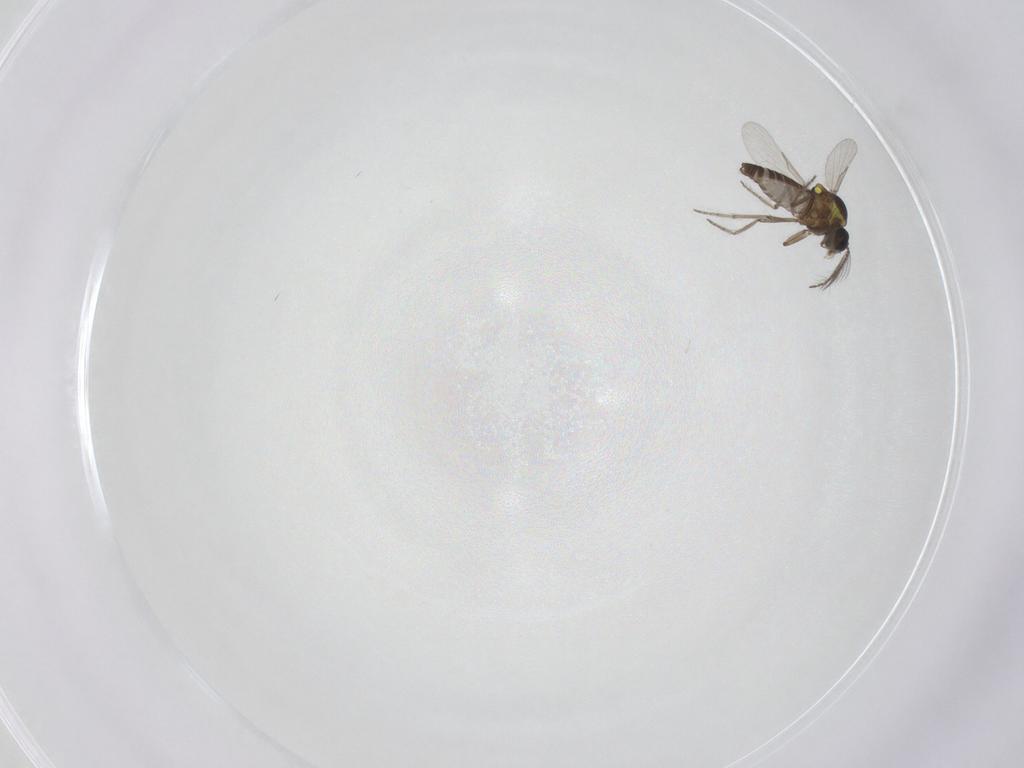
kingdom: Animalia
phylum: Arthropoda
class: Insecta
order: Diptera
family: Ceratopogonidae
